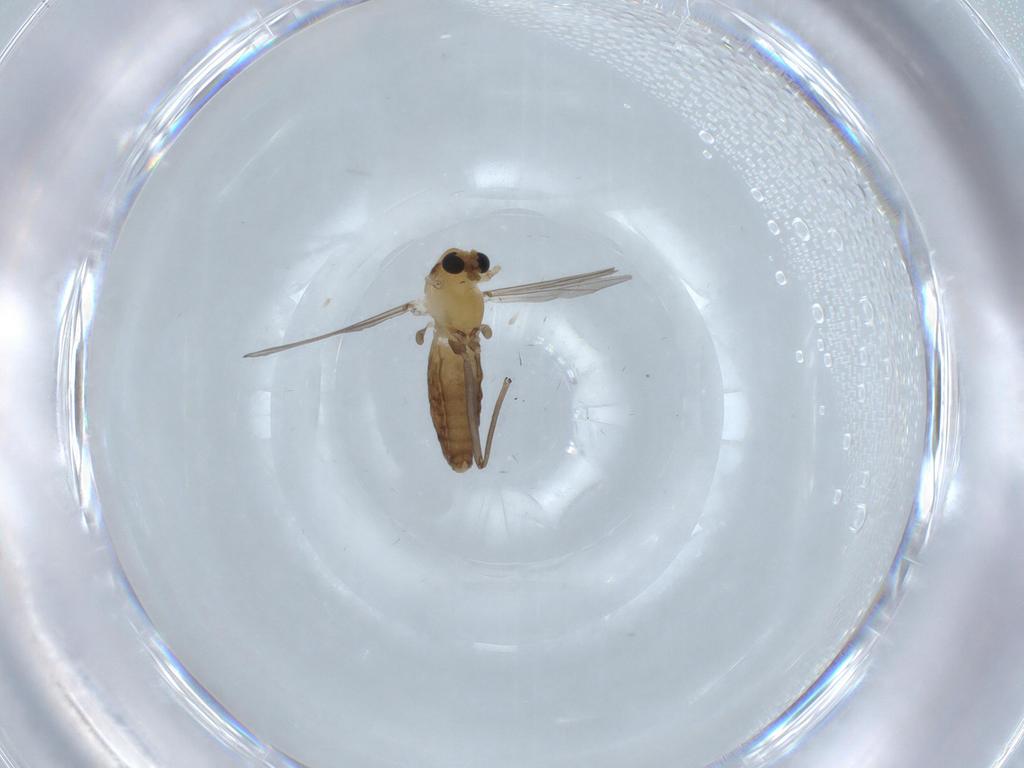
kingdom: Animalia
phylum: Arthropoda
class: Insecta
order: Diptera
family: Chironomidae
